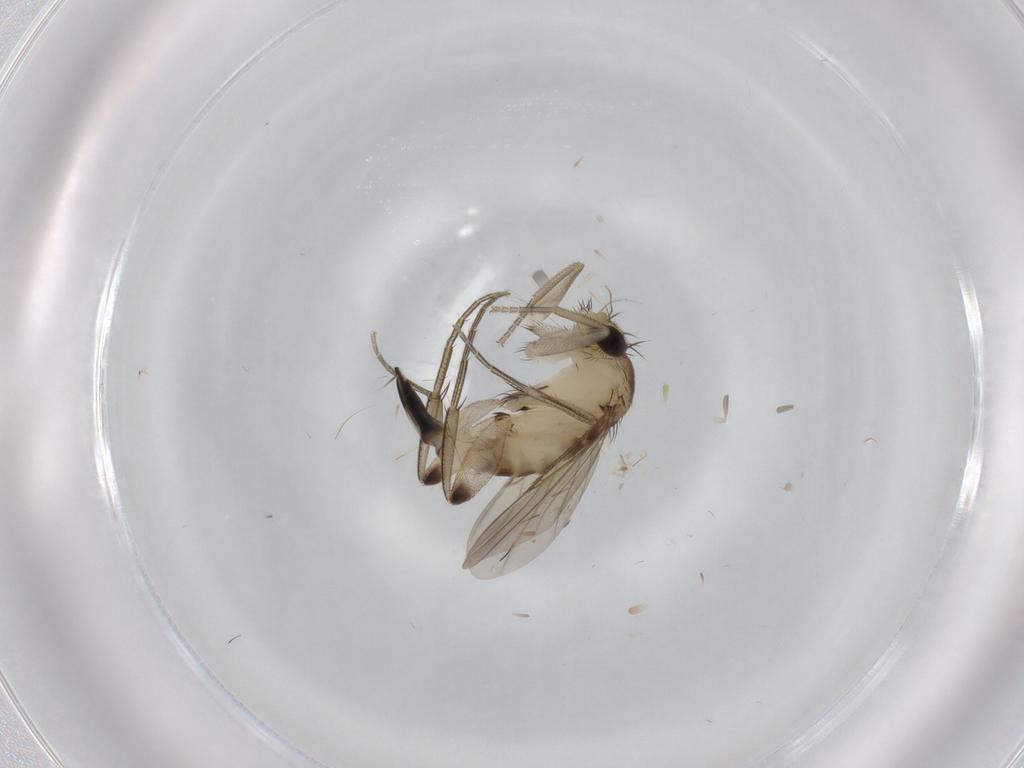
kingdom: Animalia
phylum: Arthropoda
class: Insecta
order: Diptera
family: Phoridae
